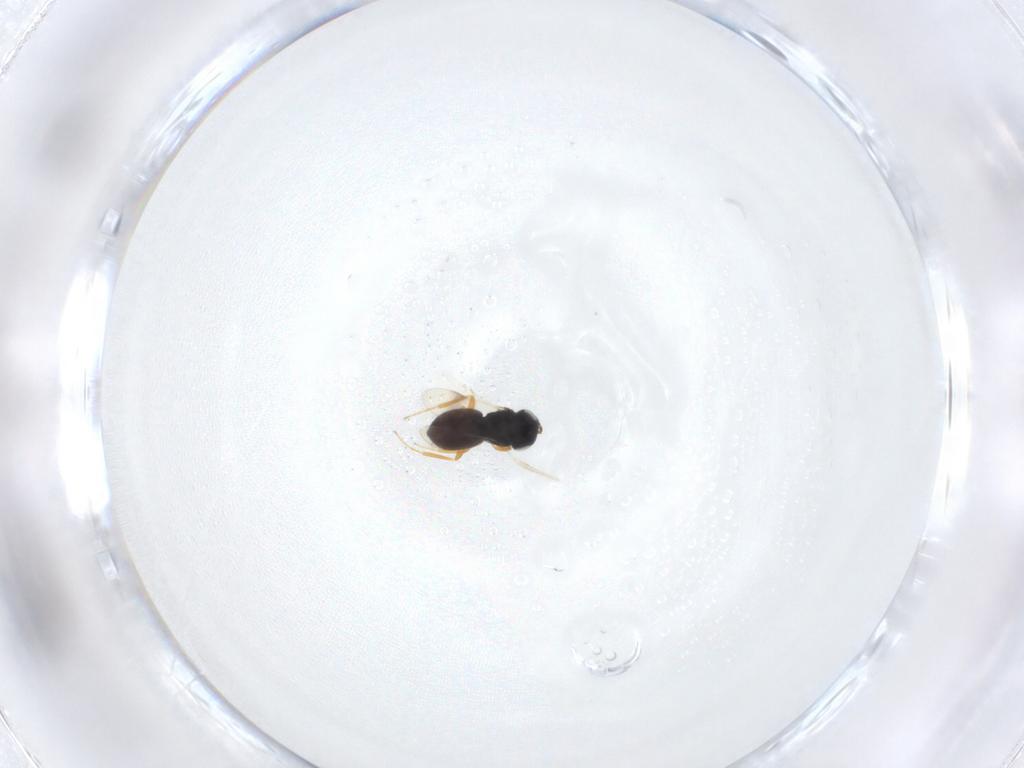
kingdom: Animalia
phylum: Arthropoda
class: Insecta
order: Hymenoptera
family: Scelionidae
